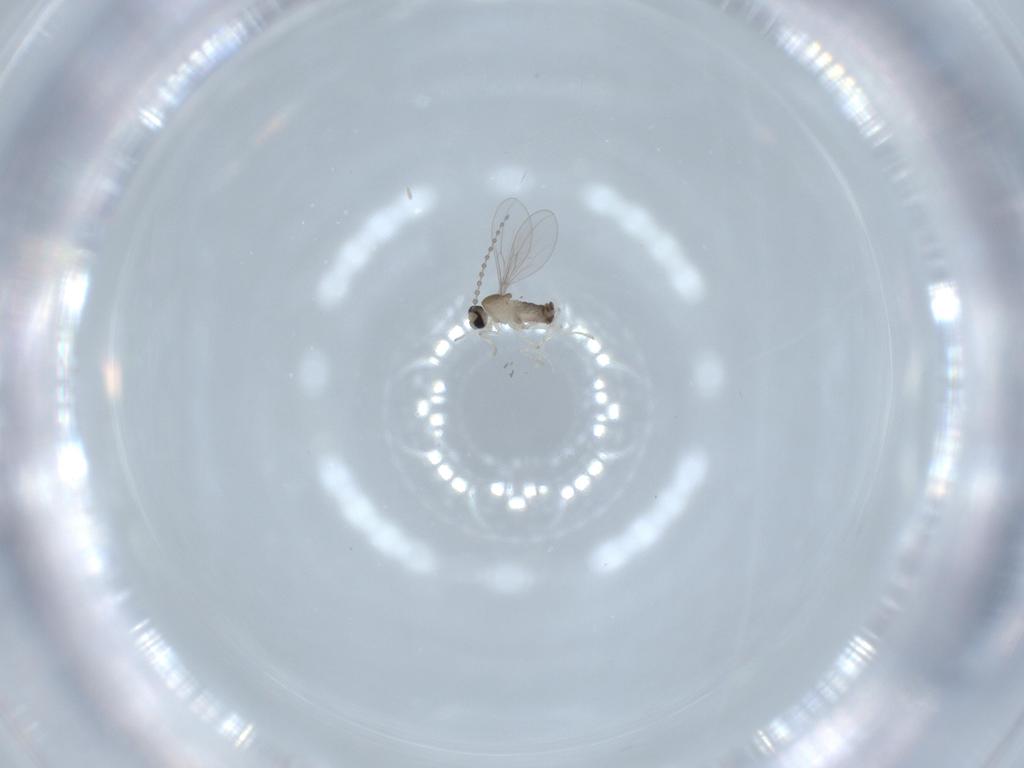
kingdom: Animalia
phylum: Arthropoda
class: Insecta
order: Diptera
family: Cecidomyiidae
